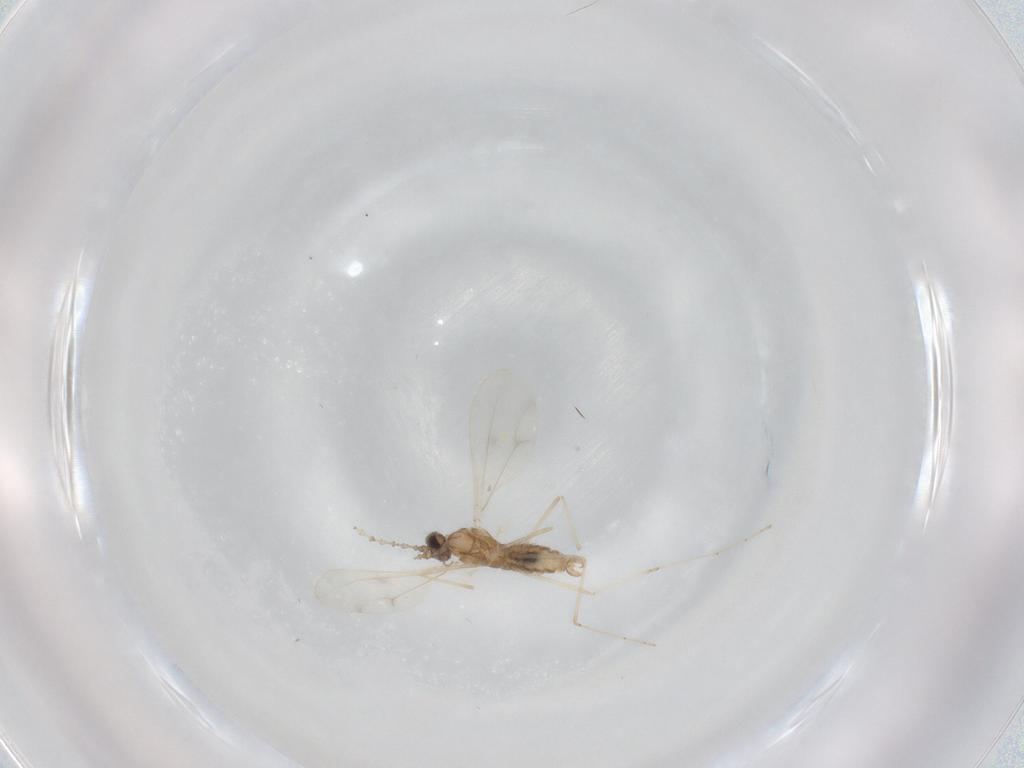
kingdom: Animalia
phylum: Arthropoda
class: Insecta
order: Diptera
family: Cecidomyiidae
